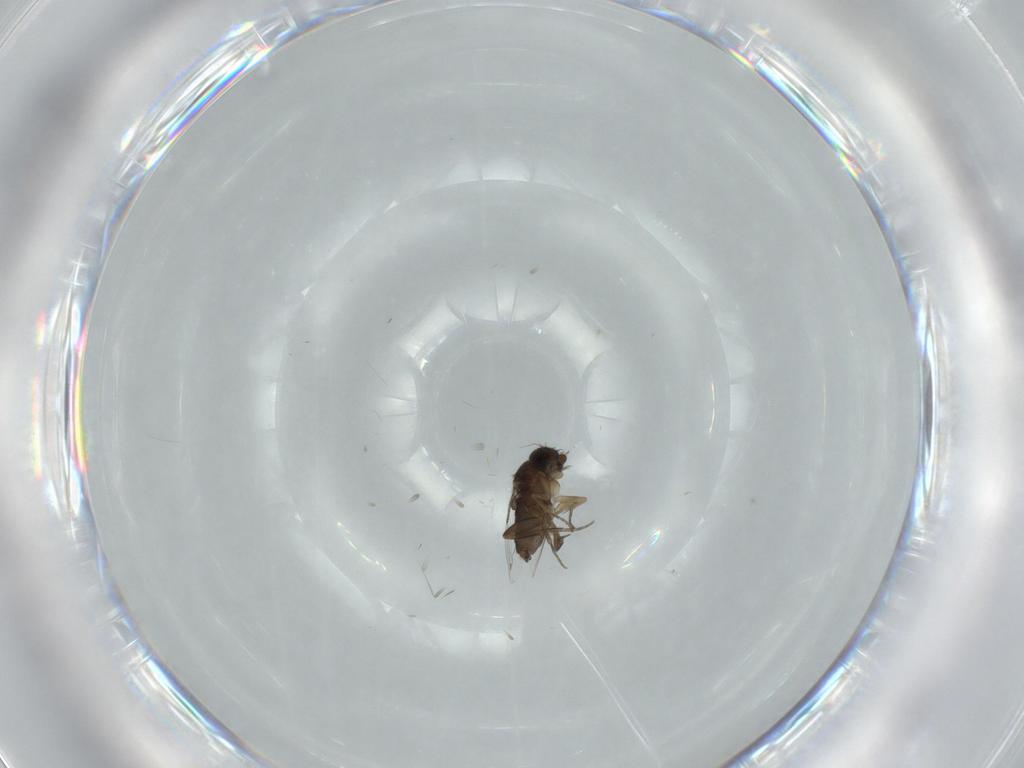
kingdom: Animalia
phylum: Arthropoda
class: Insecta
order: Diptera
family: Phoridae
